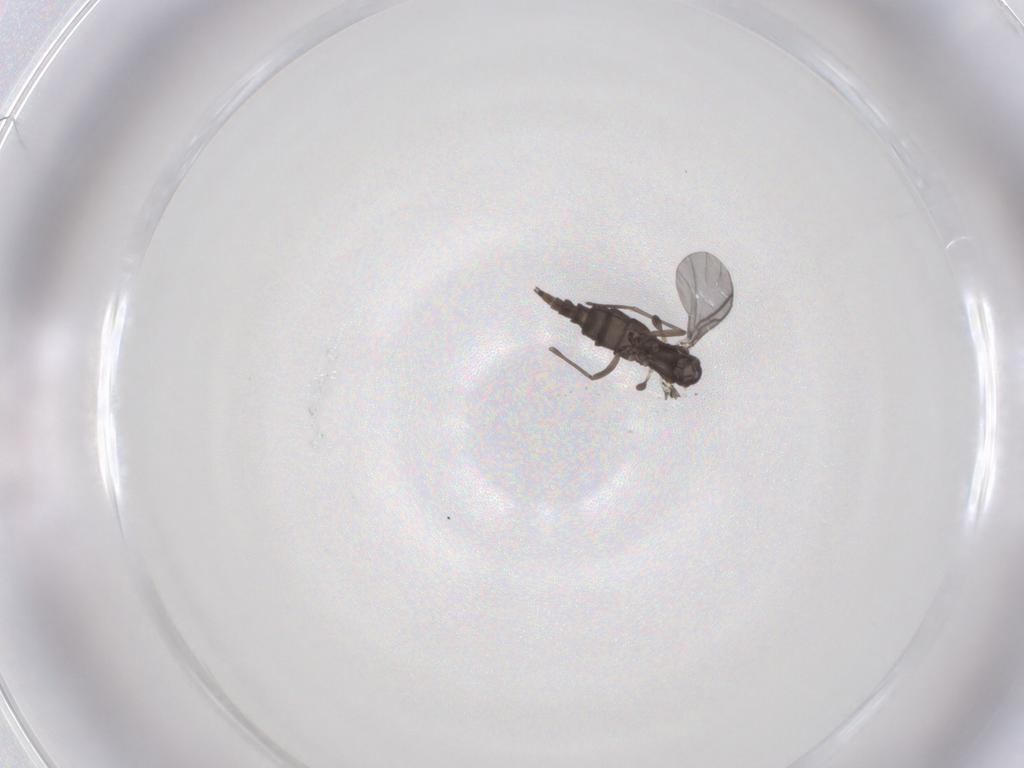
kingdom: Animalia
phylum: Arthropoda
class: Insecta
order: Diptera
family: Sciaridae
